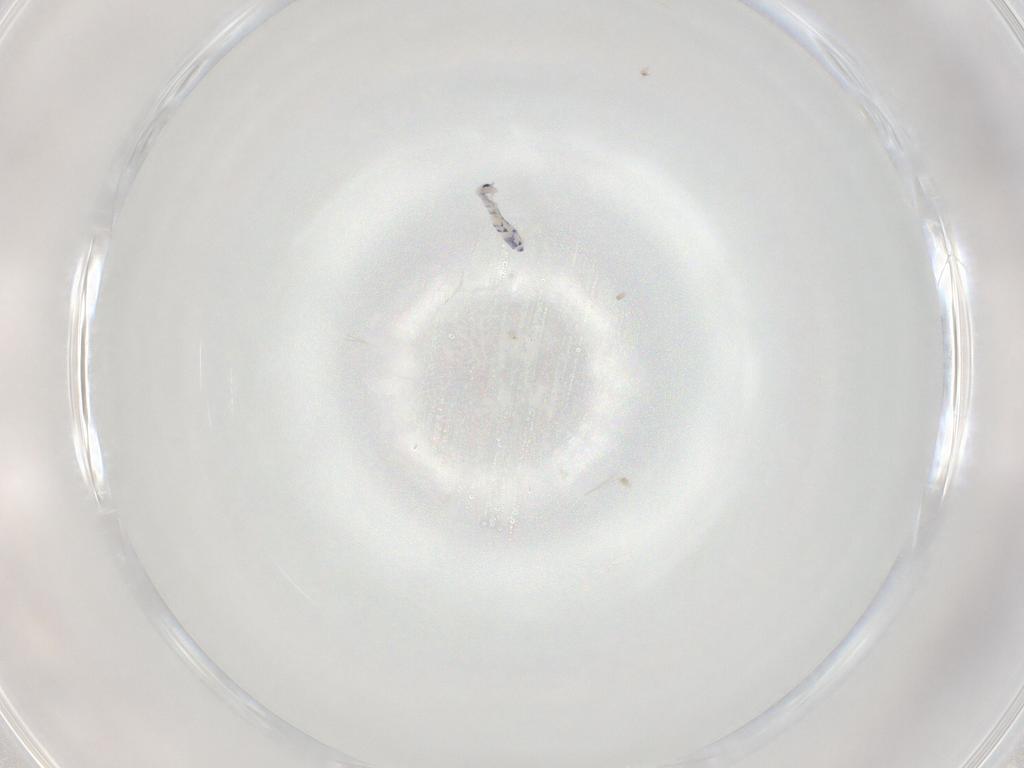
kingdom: Animalia
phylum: Arthropoda
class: Collembola
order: Entomobryomorpha
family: Entomobryidae
